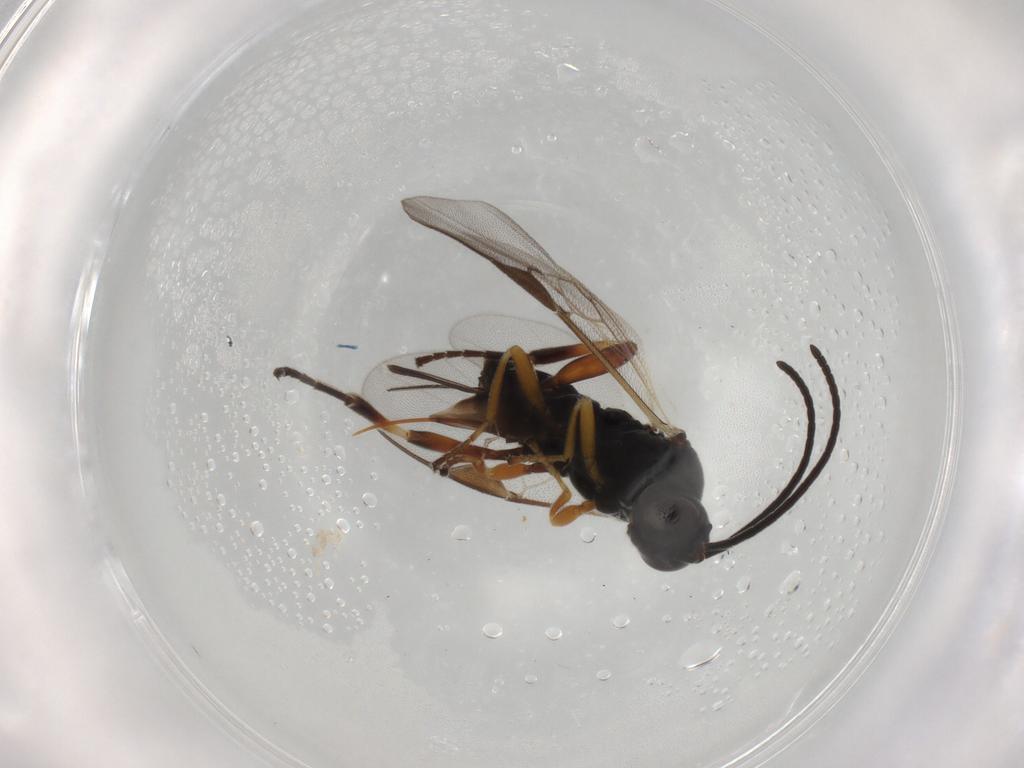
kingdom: Animalia
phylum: Arthropoda
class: Insecta
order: Hymenoptera
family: Braconidae
